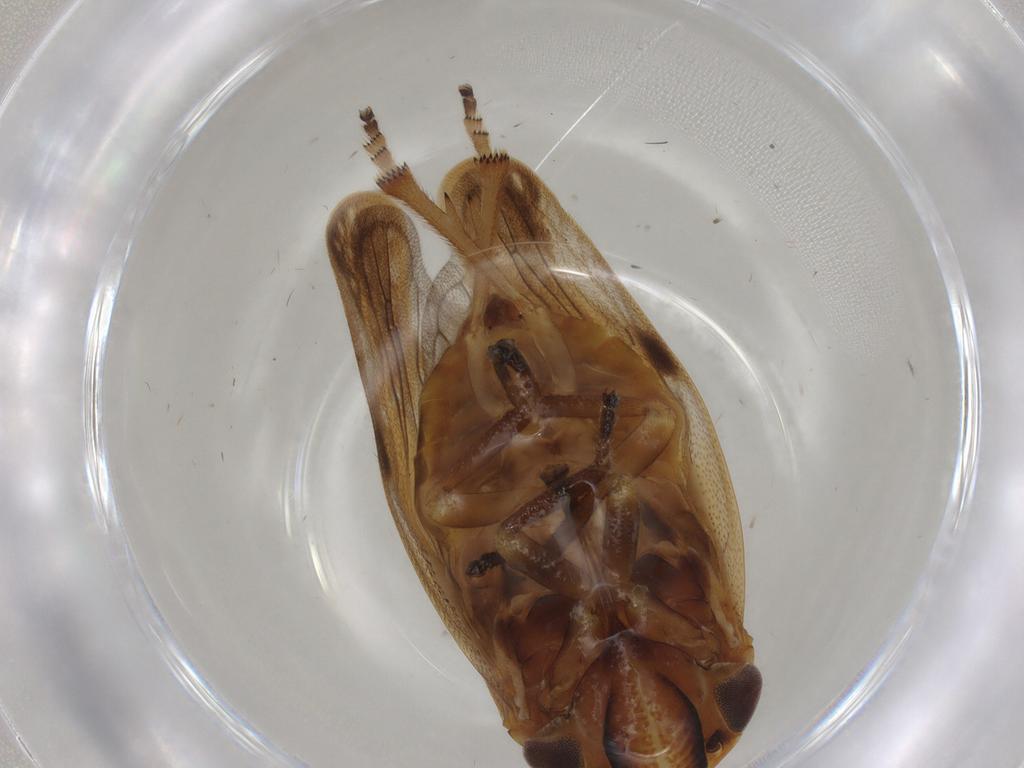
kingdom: Animalia
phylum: Arthropoda
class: Insecta
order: Hemiptera
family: Aphrophoridae
